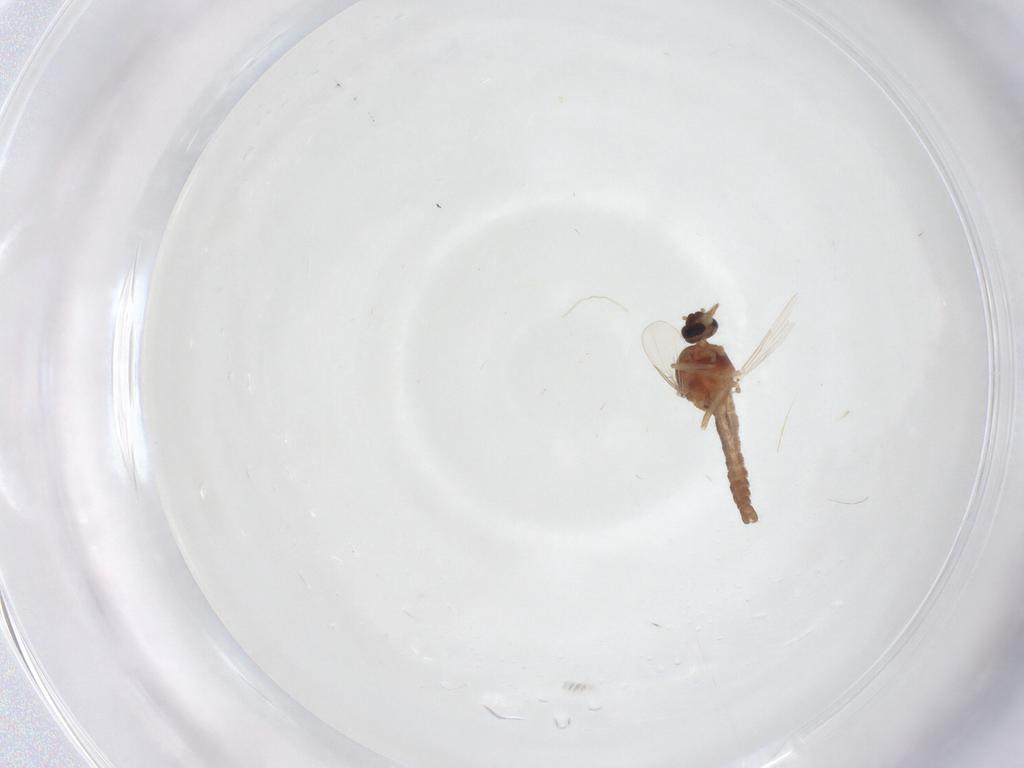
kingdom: Animalia
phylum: Arthropoda
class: Insecta
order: Diptera
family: Ceratopogonidae
